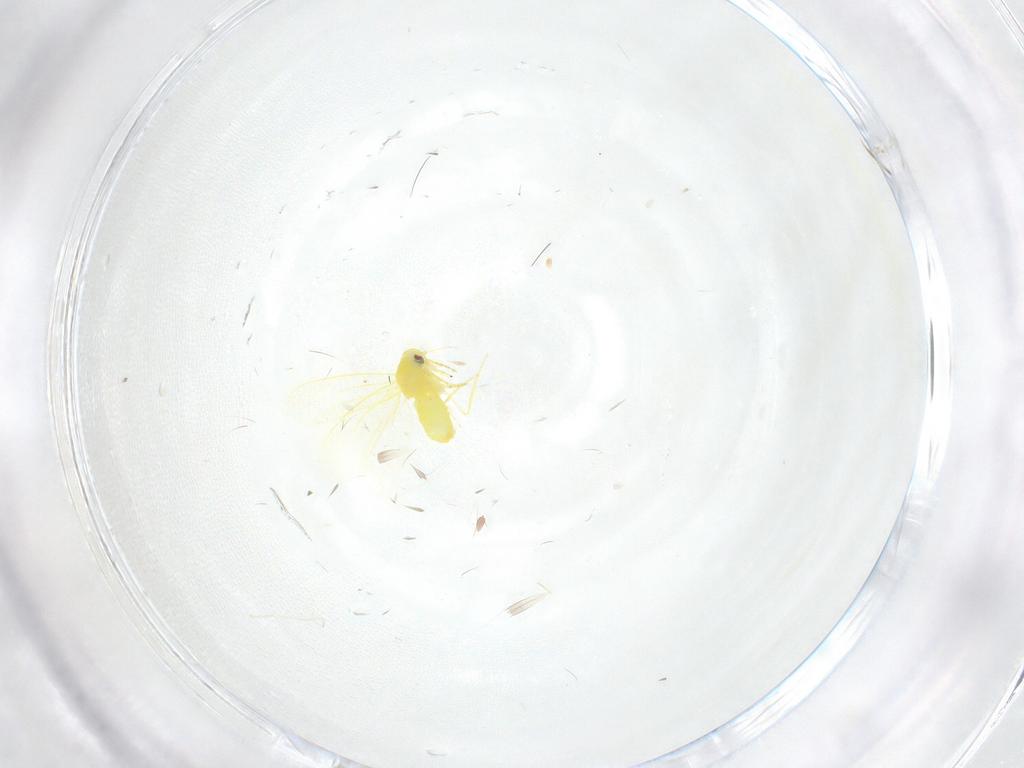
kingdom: Animalia
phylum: Arthropoda
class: Insecta
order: Hemiptera
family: Aleyrodidae
